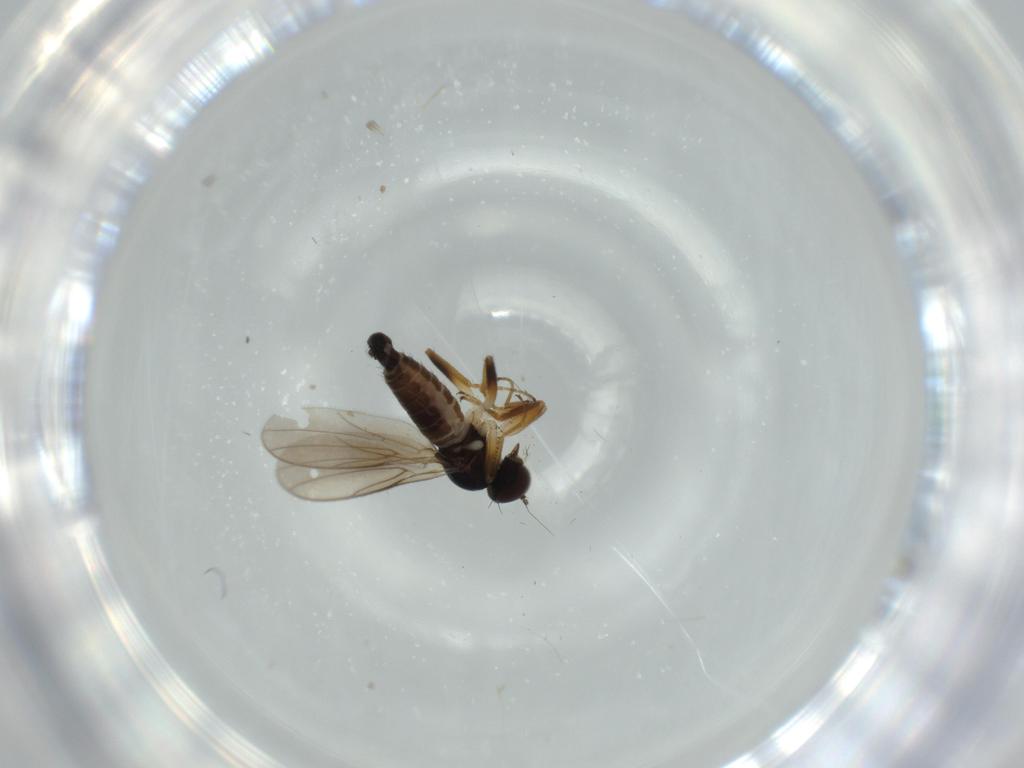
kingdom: Animalia
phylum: Arthropoda
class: Insecta
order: Diptera
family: Hybotidae
